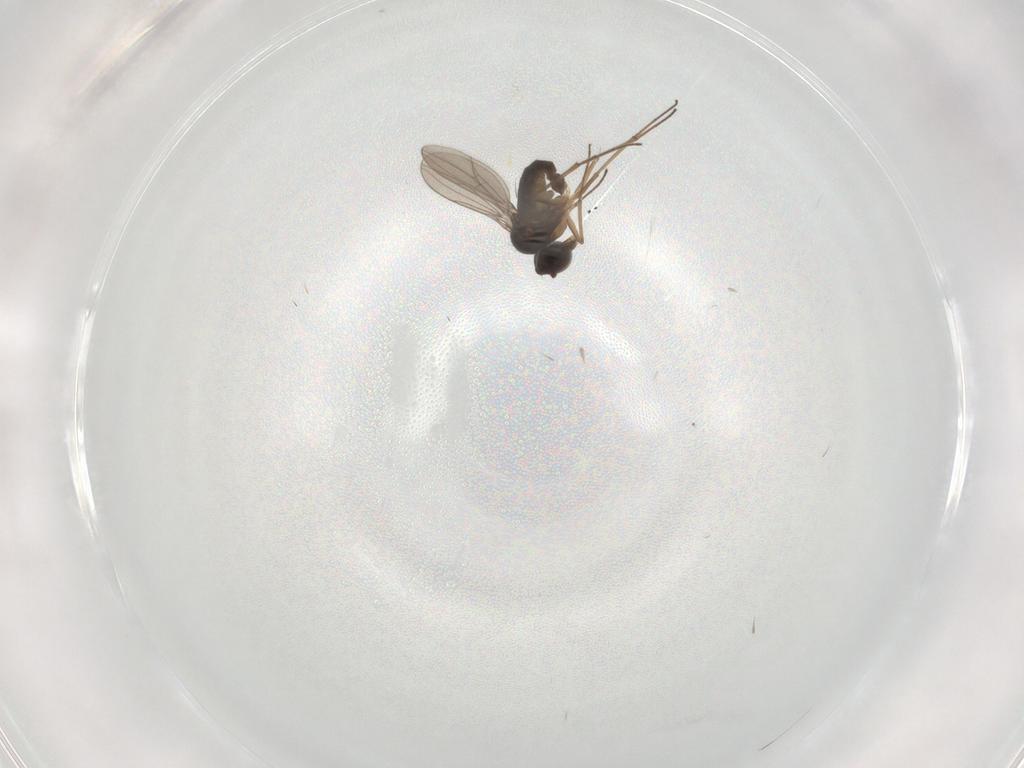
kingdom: Animalia
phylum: Arthropoda
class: Insecta
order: Diptera
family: Dolichopodidae
